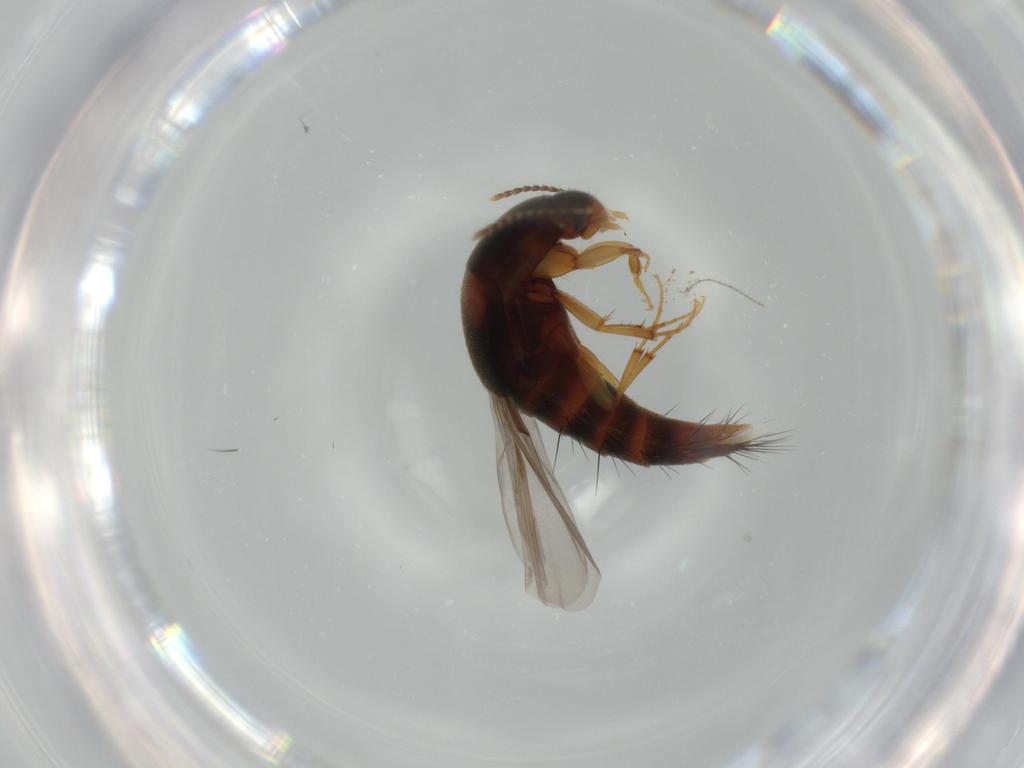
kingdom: Animalia
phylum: Arthropoda
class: Insecta
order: Coleoptera
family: Staphylinidae
